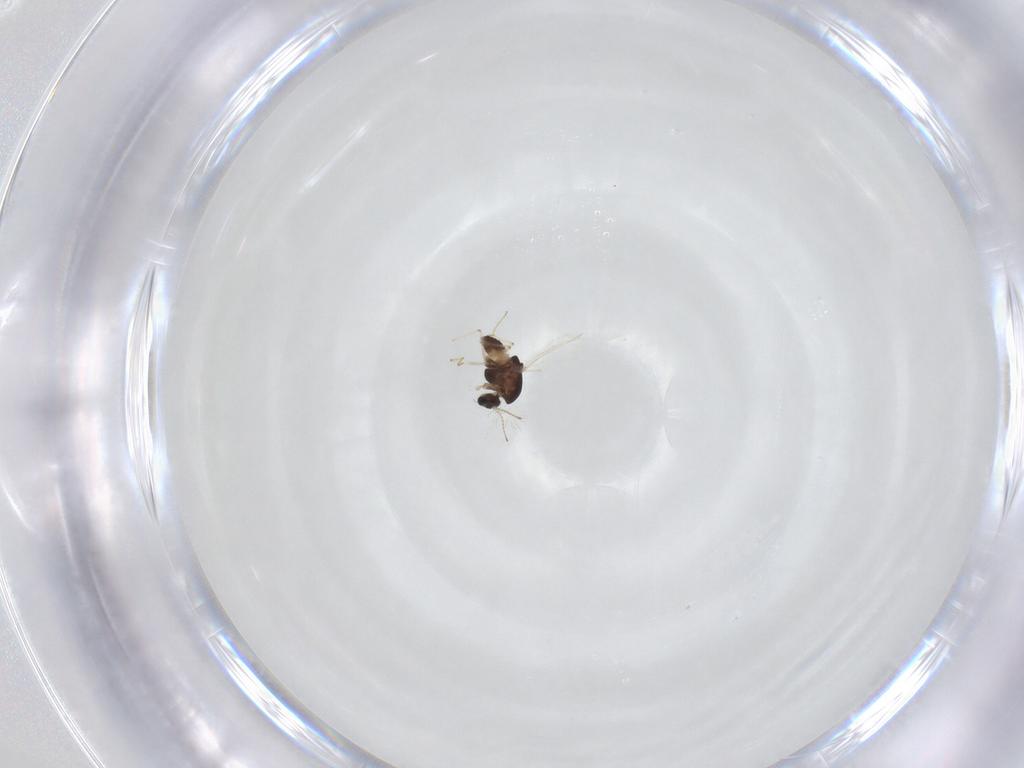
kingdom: Animalia
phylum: Arthropoda
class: Insecta
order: Diptera
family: Chironomidae
